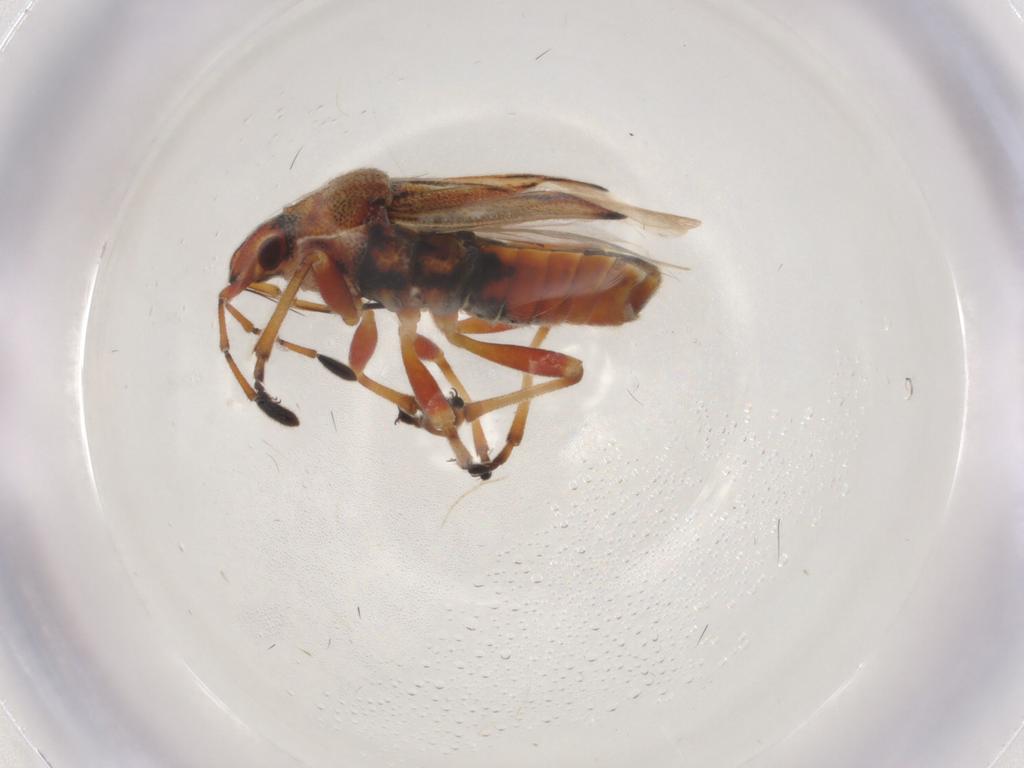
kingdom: Animalia
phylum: Arthropoda
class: Insecta
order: Hemiptera
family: Lygaeidae
